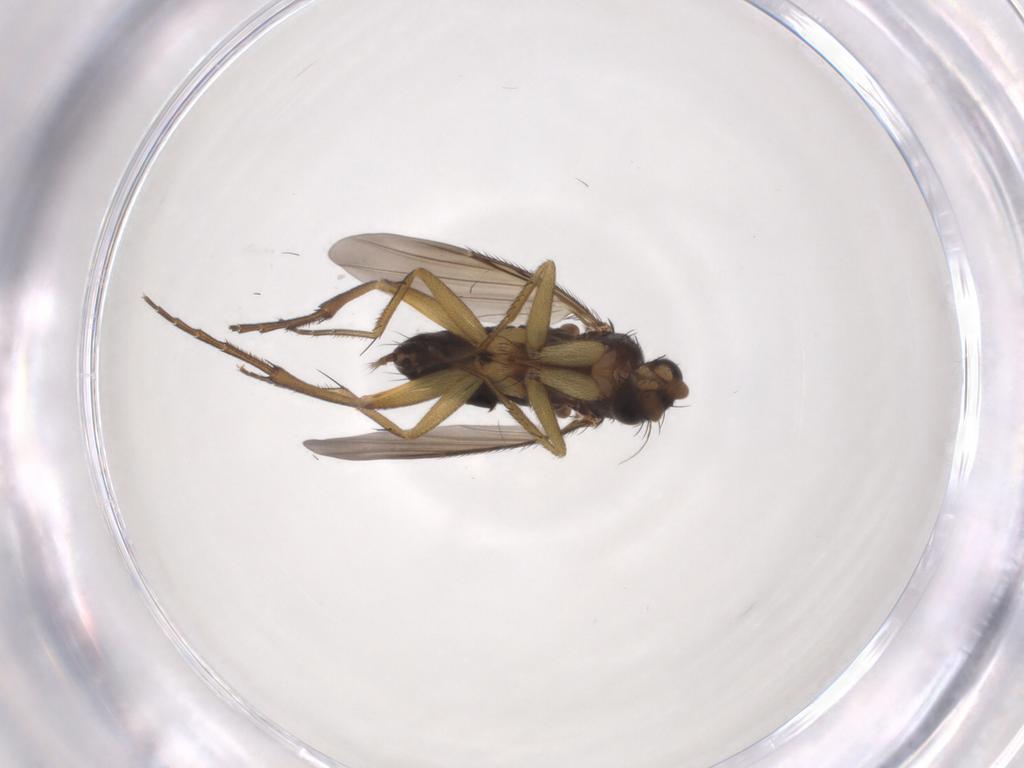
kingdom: Animalia
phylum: Arthropoda
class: Insecta
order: Diptera
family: Phoridae
